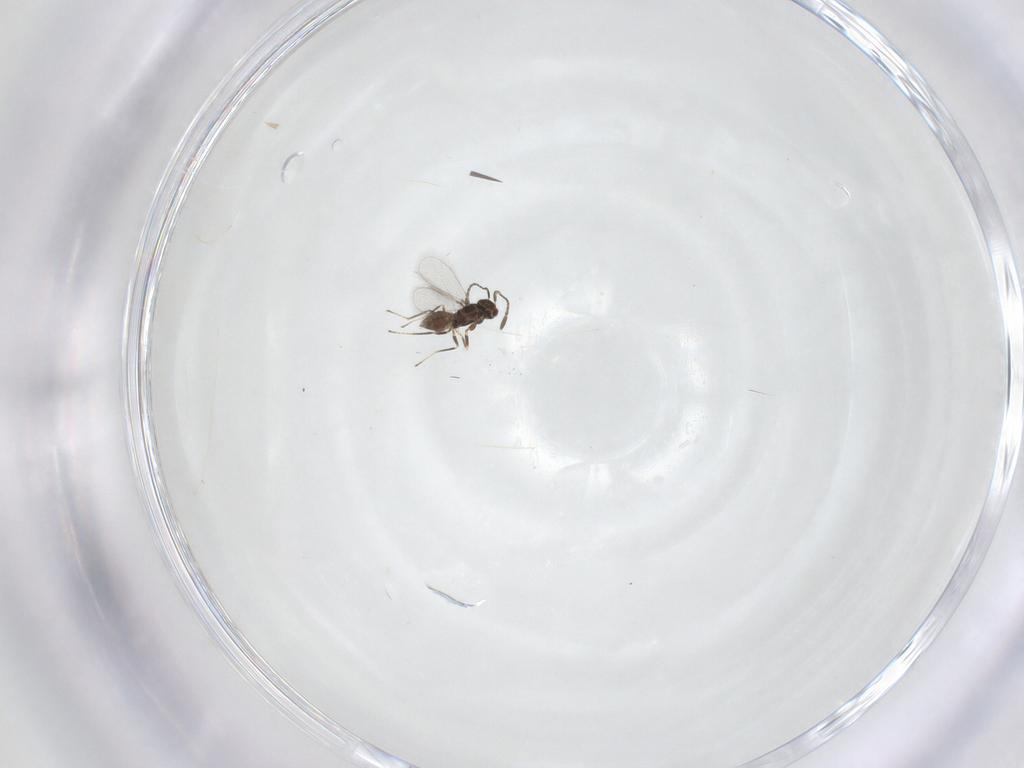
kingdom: Animalia
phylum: Arthropoda
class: Insecta
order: Hymenoptera
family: Mymaridae
